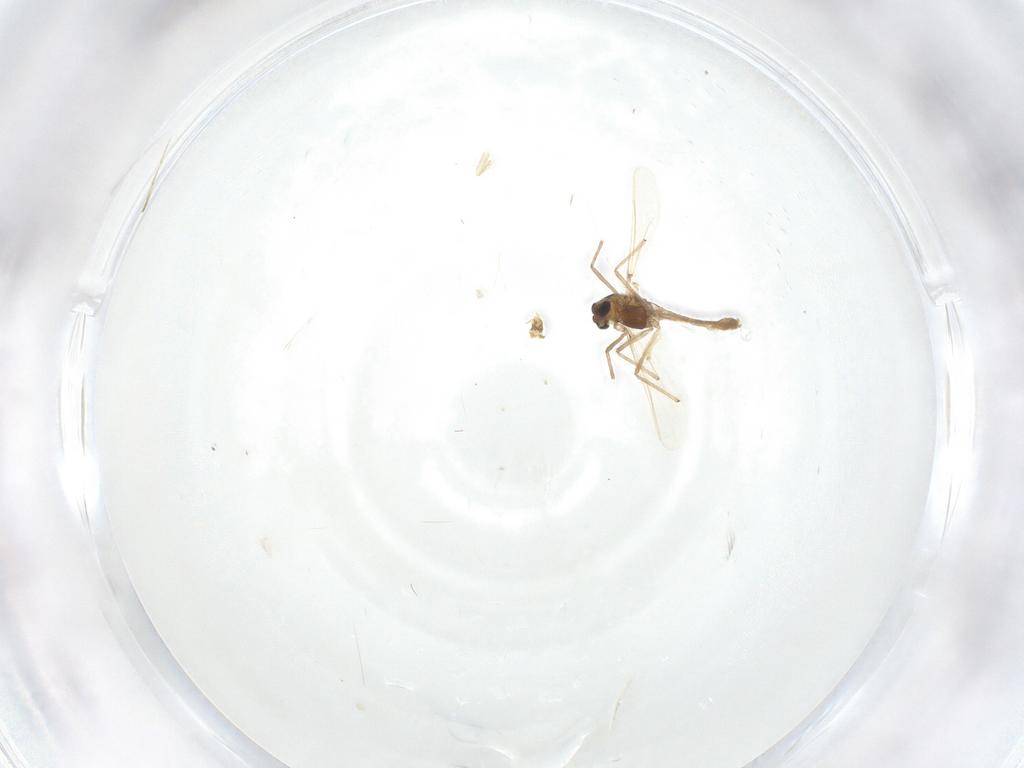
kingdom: Animalia
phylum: Arthropoda
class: Insecta
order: Diptera
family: Chironomidae
